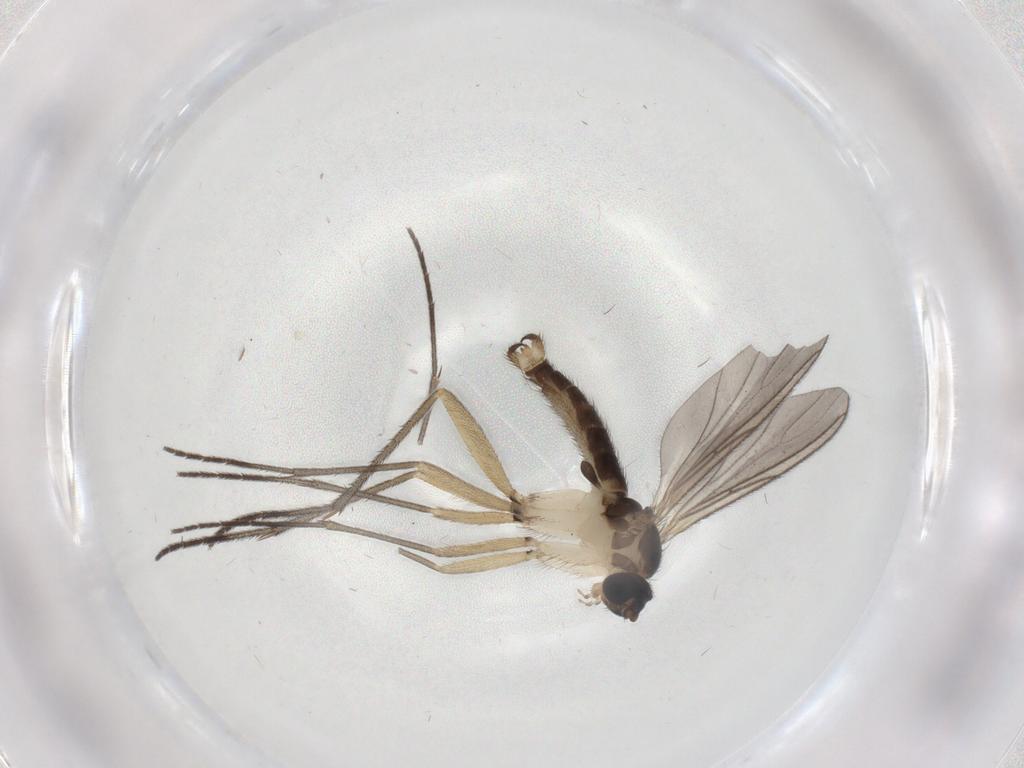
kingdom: Animalia
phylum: Arthropoda
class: Insecta
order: Diptera
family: Sciaridae
